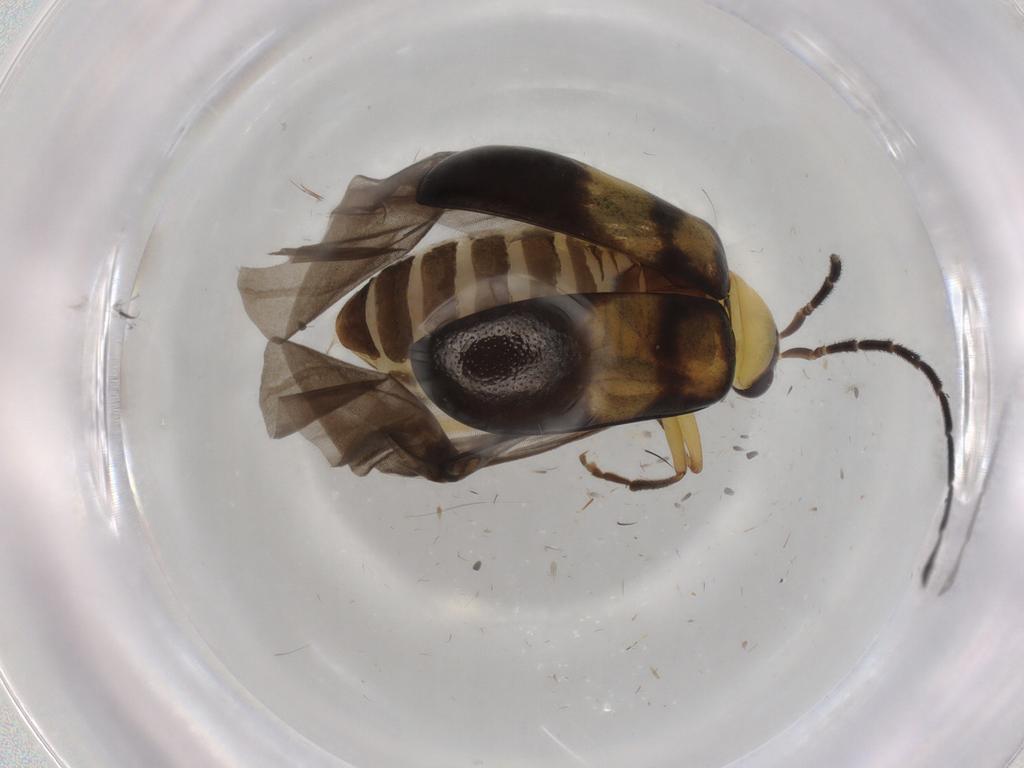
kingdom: Animalia
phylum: Arthropoda
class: Insecta
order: Coleoptera
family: Chrysomelidae
